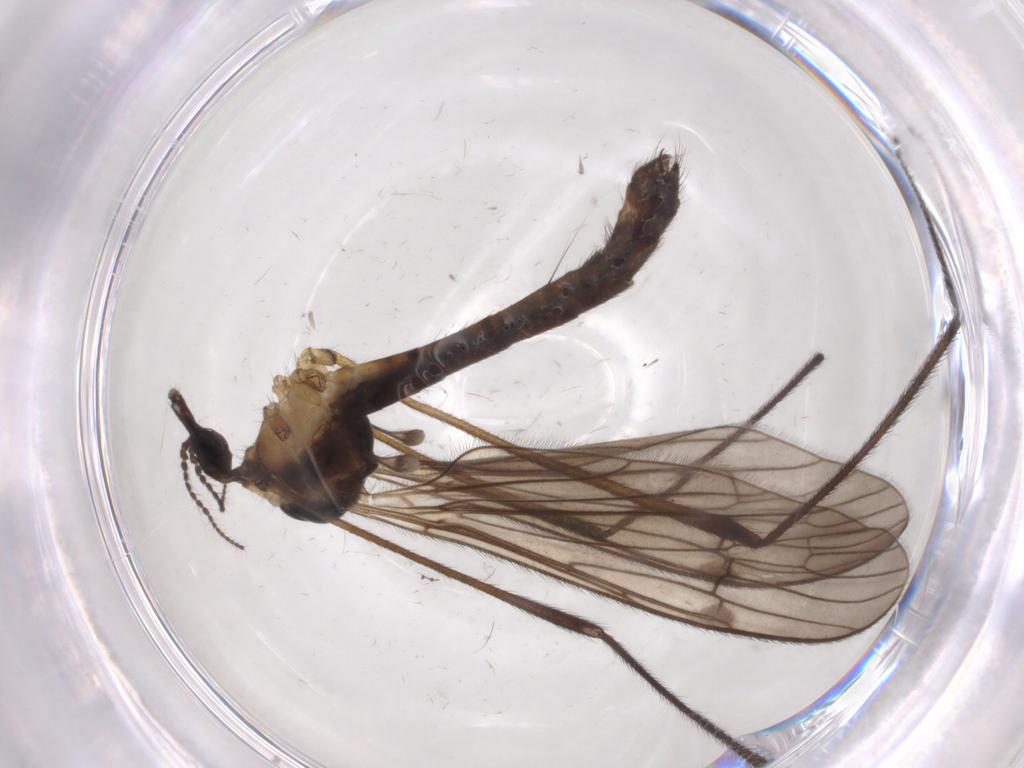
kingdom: Animalia
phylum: Arthropoda
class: Insecta
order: Diptera
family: Limoniidae
